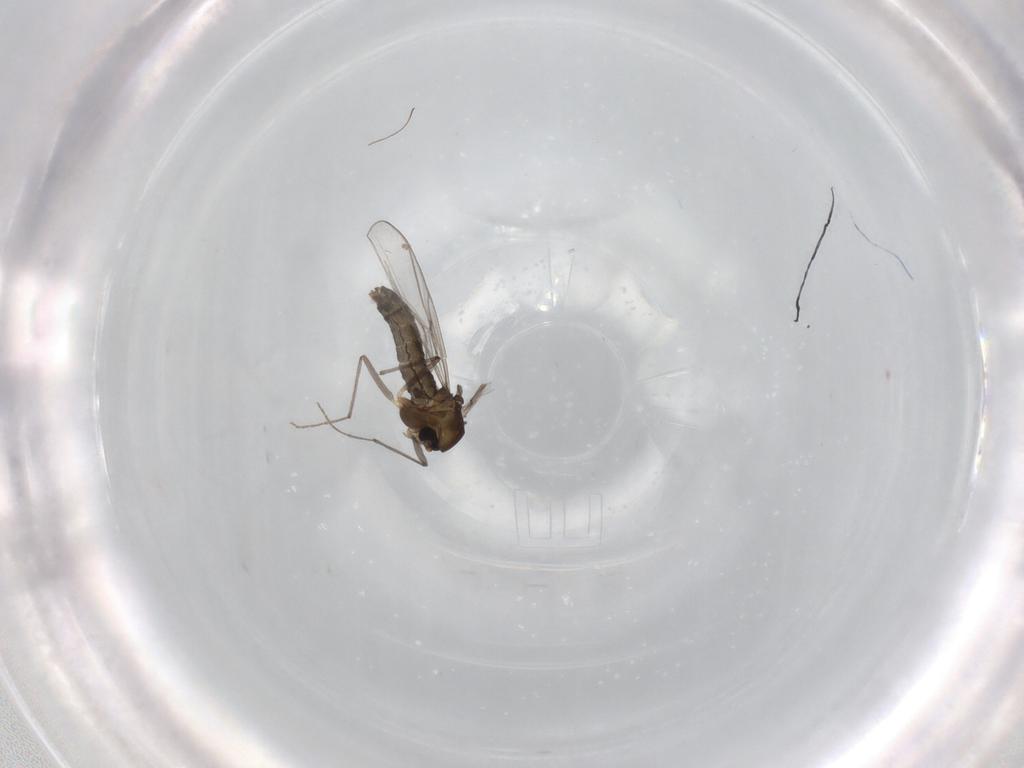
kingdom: Animalia
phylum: Arthropoda
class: Insecta
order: Diptera
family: Chironomidae
